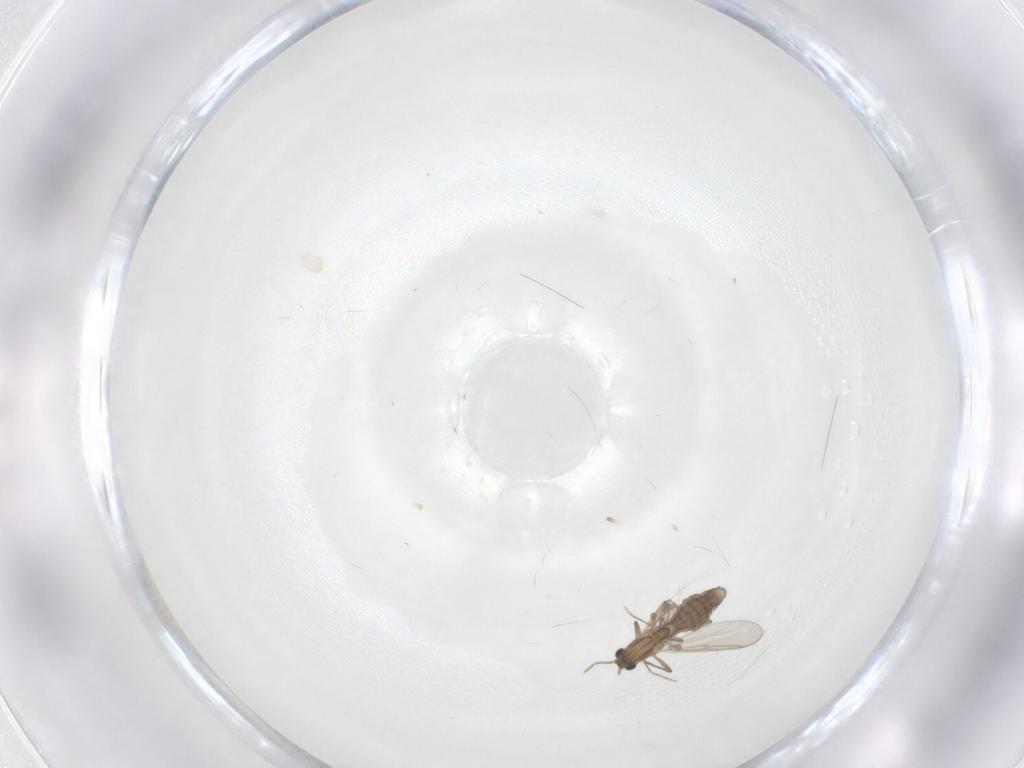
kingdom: Animalia
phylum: Arthropoda
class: Insecta
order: Diptera
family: Chironomidae
